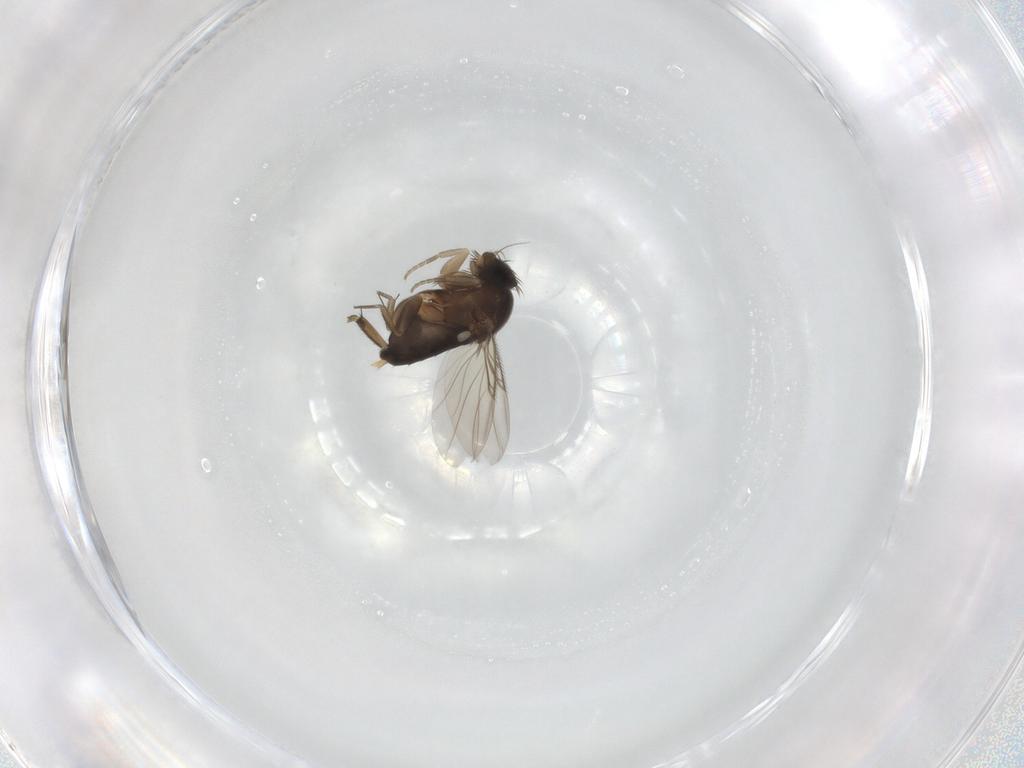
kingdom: Animalia
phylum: Arthropoda
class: Insecta
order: Diptera
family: Phoridae
